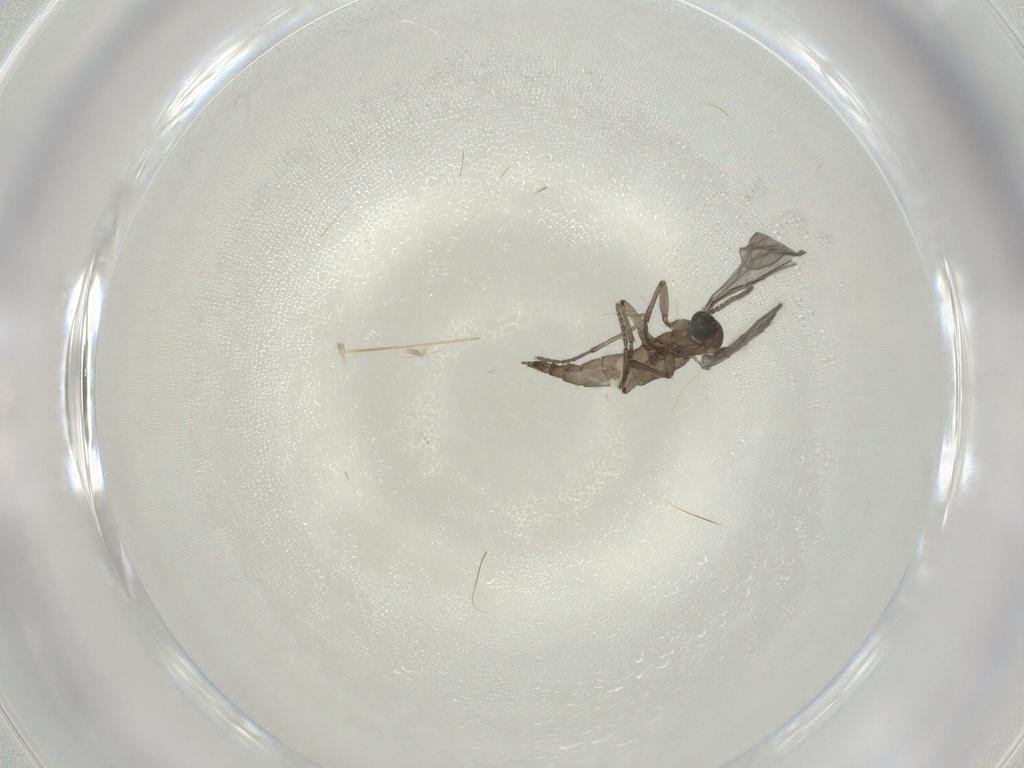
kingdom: Animalia
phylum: Arthropoda
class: Insecta
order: Diptera
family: Sciaridae
